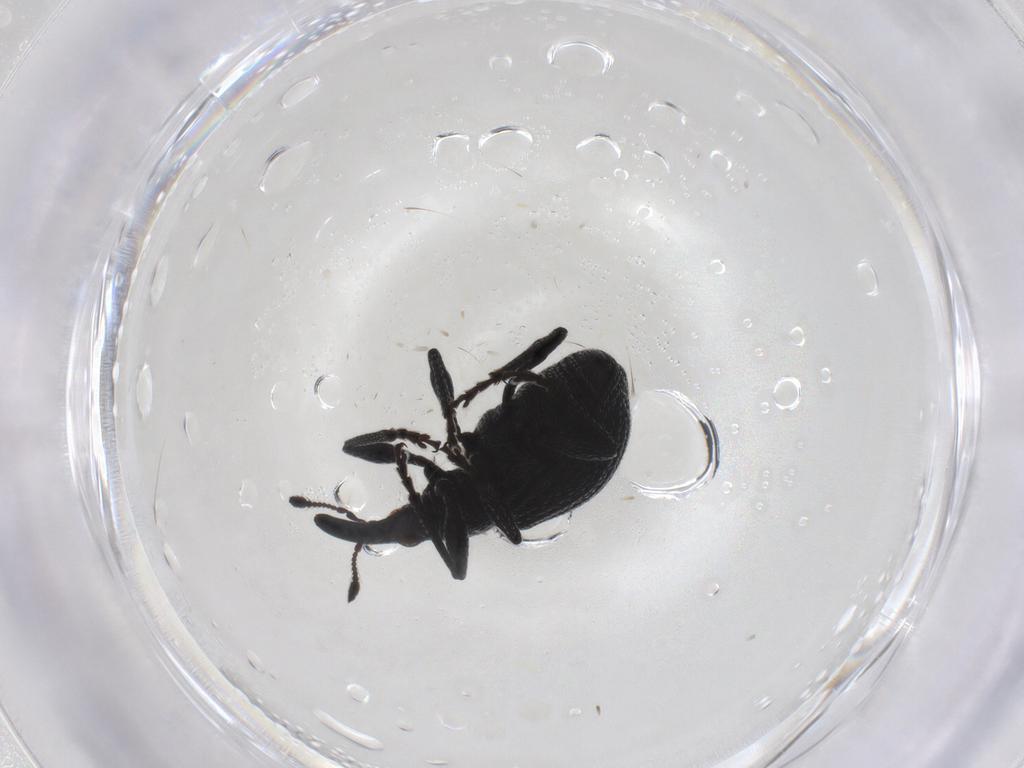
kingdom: Animalia
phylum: Arthropoda
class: Insecta
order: Coleoptera
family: Brentidae
